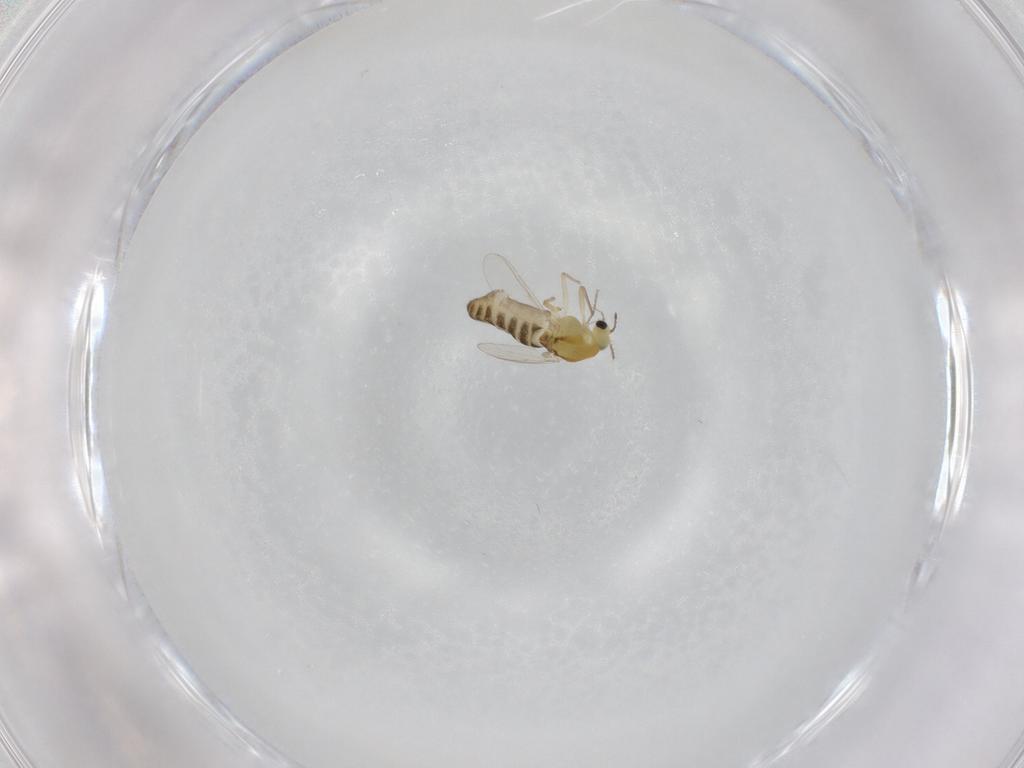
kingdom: Animalia
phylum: Arthropoda
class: Insecta
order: Diptera
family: Chironomidae
